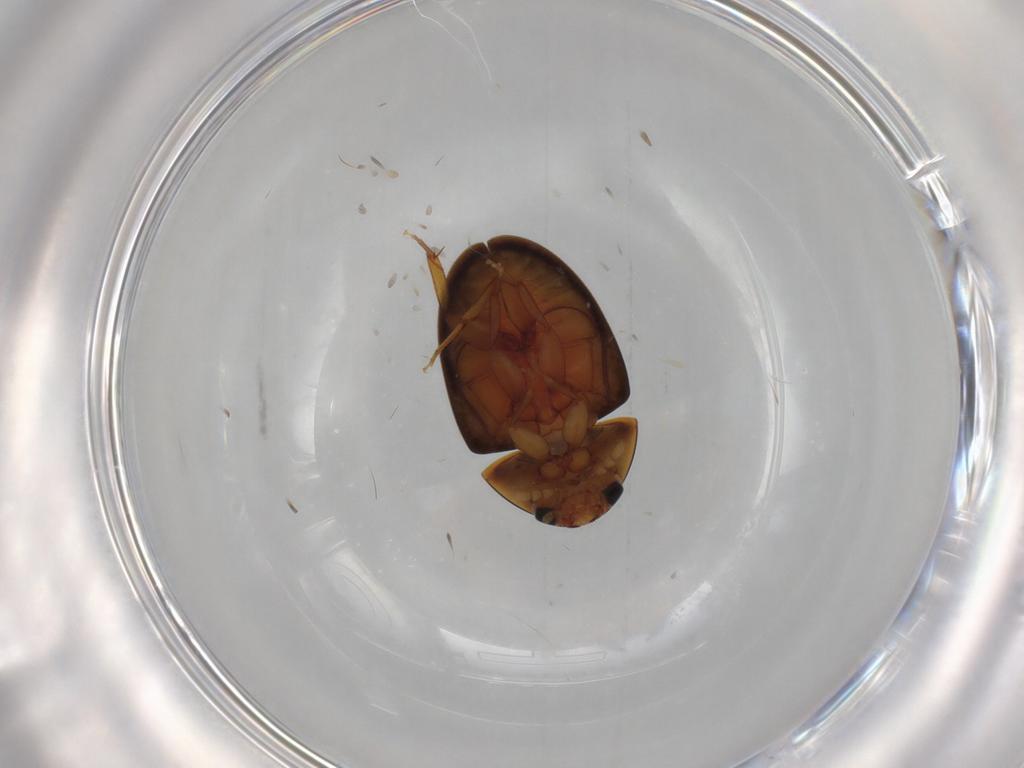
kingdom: Animalia
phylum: Arthropoda
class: Insecta
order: Coleoptera
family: Phalacridae
